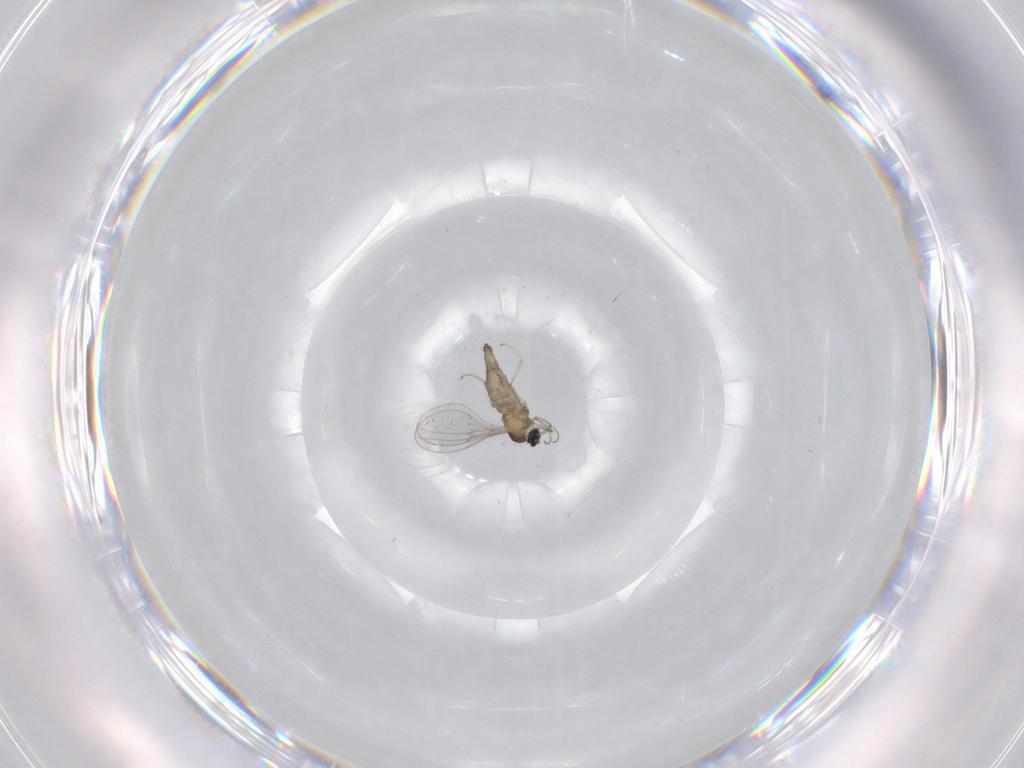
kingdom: Animalia
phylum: Arthropoda
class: Insecta
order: Diptera
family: Cecidomyiidae
